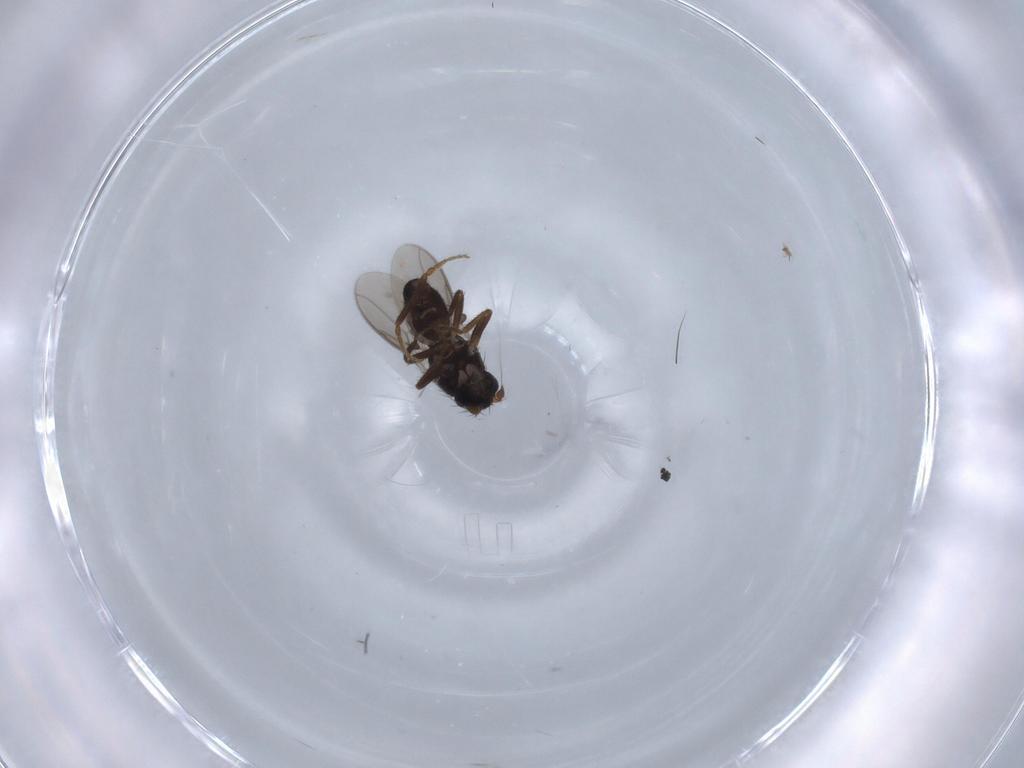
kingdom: Animalia
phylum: Arthropoda
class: Insecta
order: Diptera
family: Sphaeroceridae
